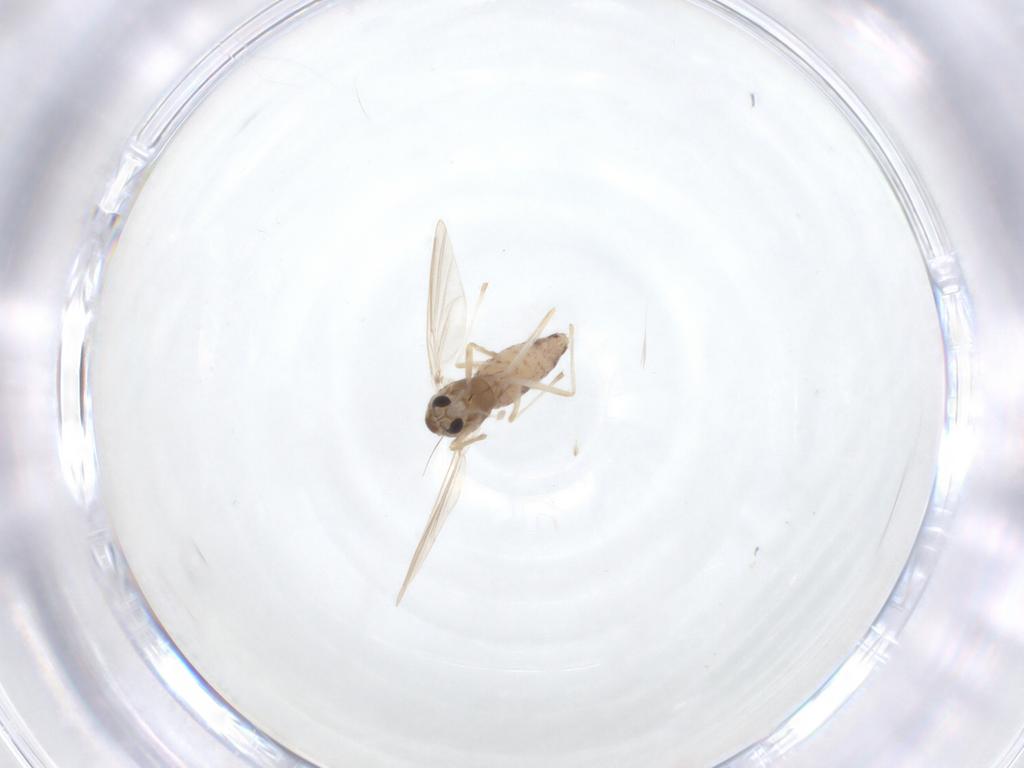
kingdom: Animalia
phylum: Arthropoda
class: Insecta
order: Diptera
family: Chironomidae
